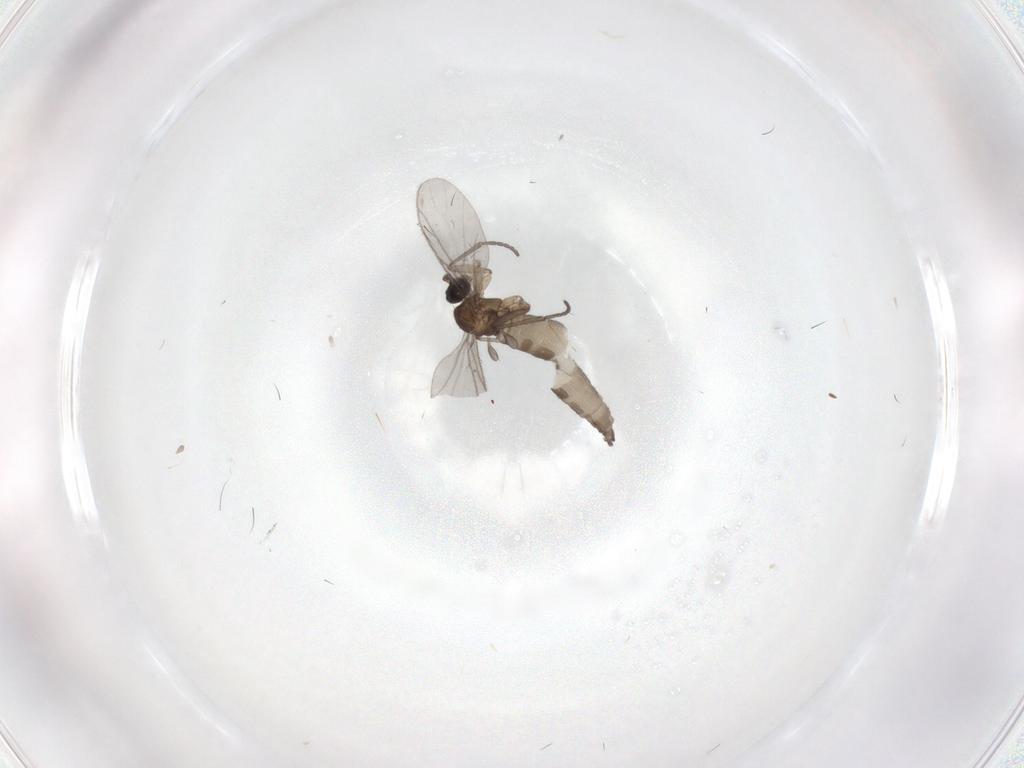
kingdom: Animalia
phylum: Arthropoda
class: Insecta
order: Diptera
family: Sciaridae
